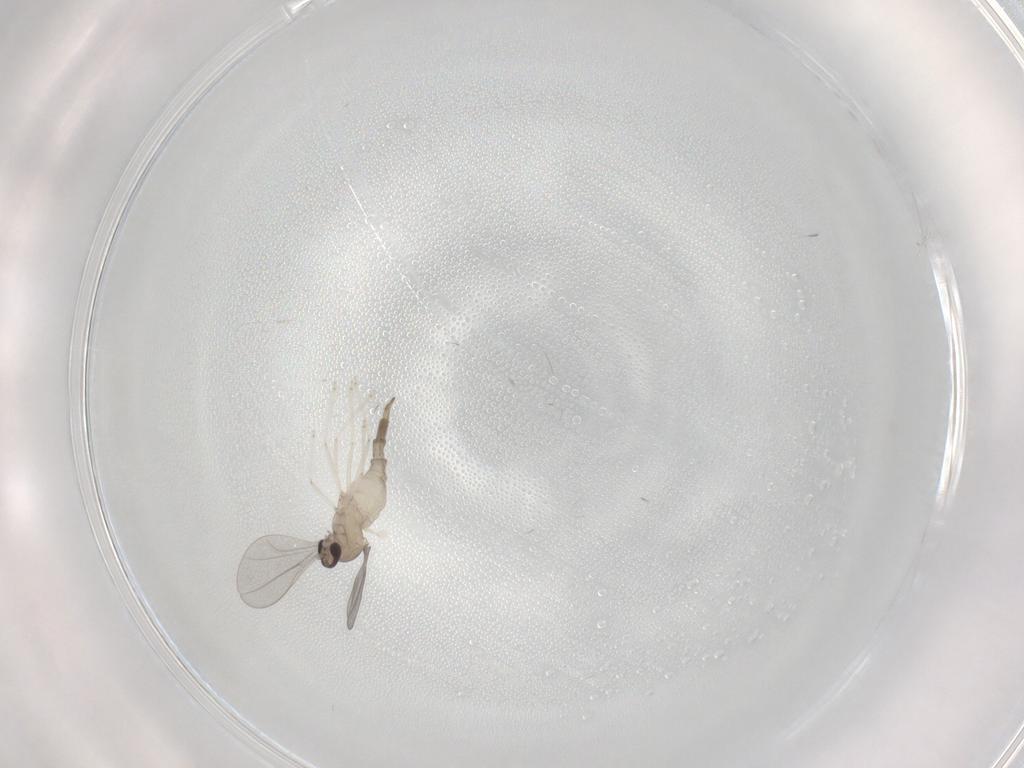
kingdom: Animalia
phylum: Arthropoda
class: Insecta
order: Diptera
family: Cecidomyiidae
